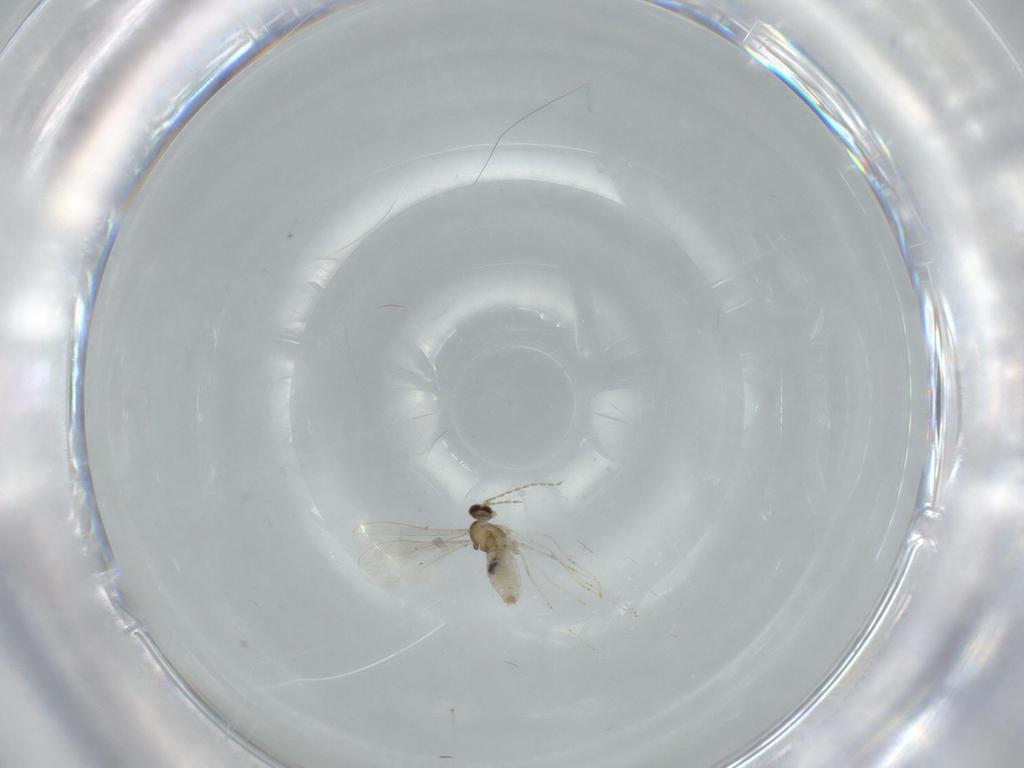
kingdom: Animalia
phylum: Arthropoda
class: Insecta
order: Diptera
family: Cecidomyiidae
